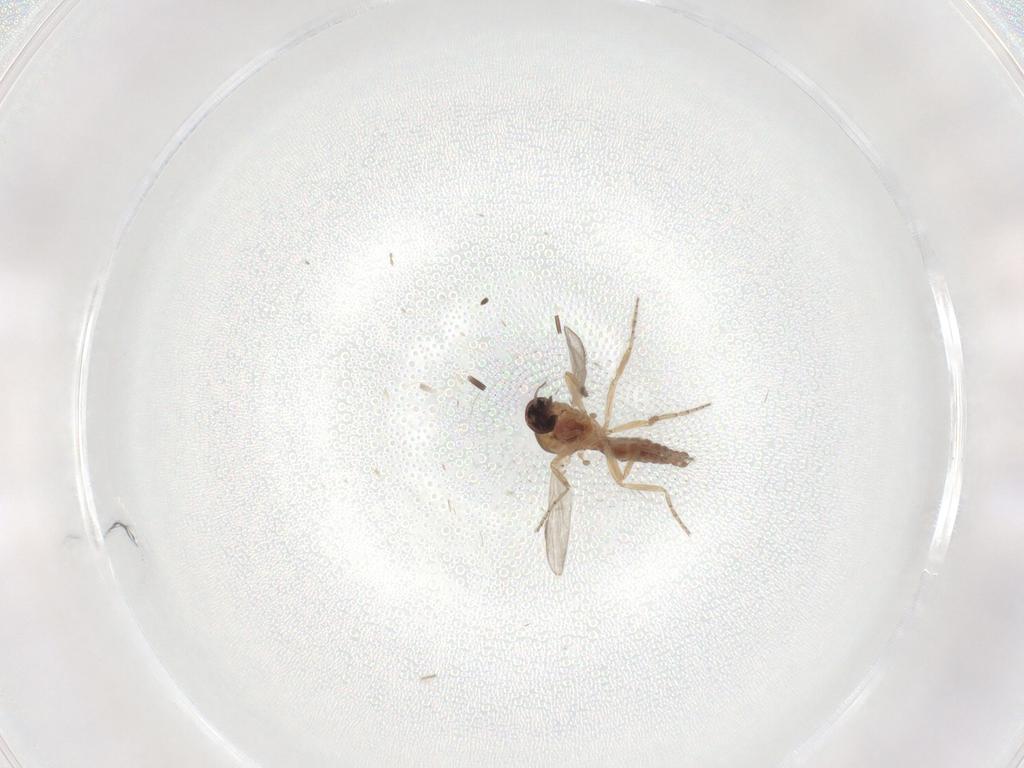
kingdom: Animalia
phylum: Arthropoda
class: Insecta
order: Diptera
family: Ceratopogonidae
